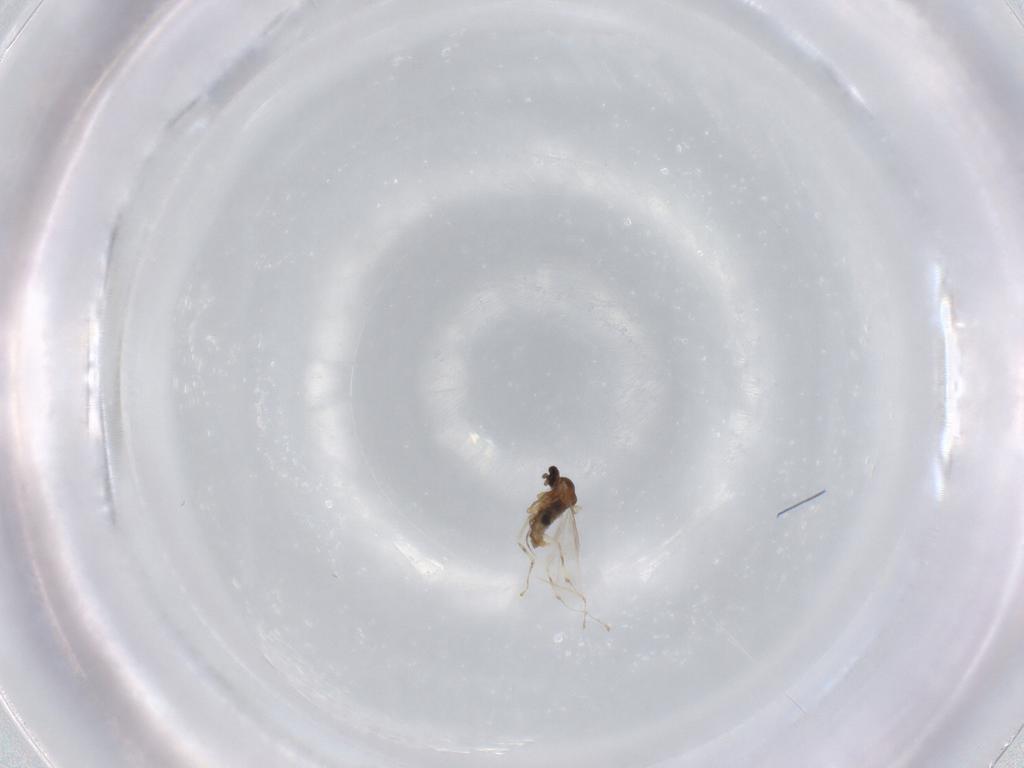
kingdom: Animalia
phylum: Arthropoda
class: Insecta
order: Diptera
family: Cecidomyiidae
